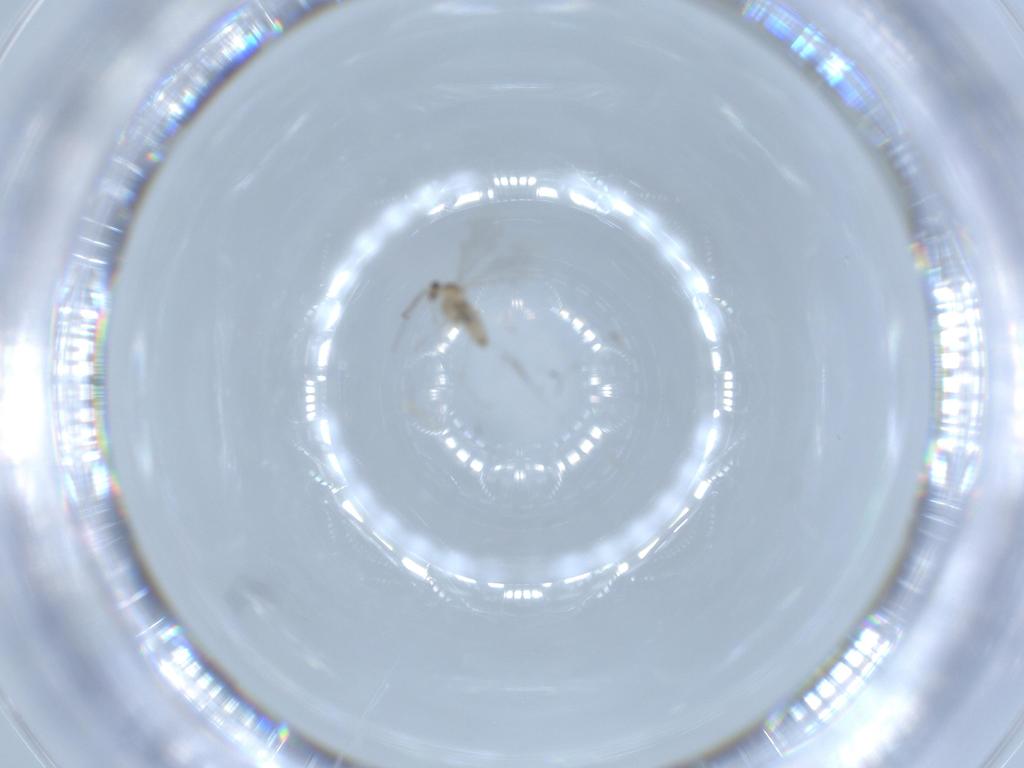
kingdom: Animalia
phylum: Arthropoda
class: Insecta
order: Diptera
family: Cecidomyiidae
